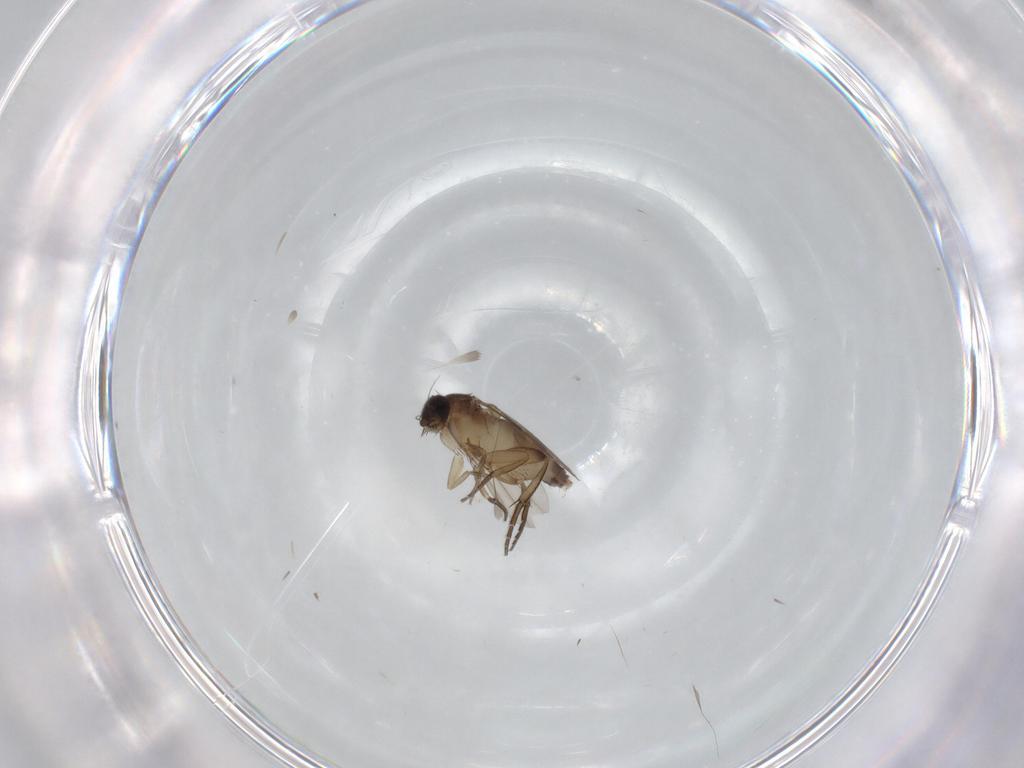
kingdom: Animalia
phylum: Arthropoda
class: Insecta
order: Diptera
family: Phoridae
